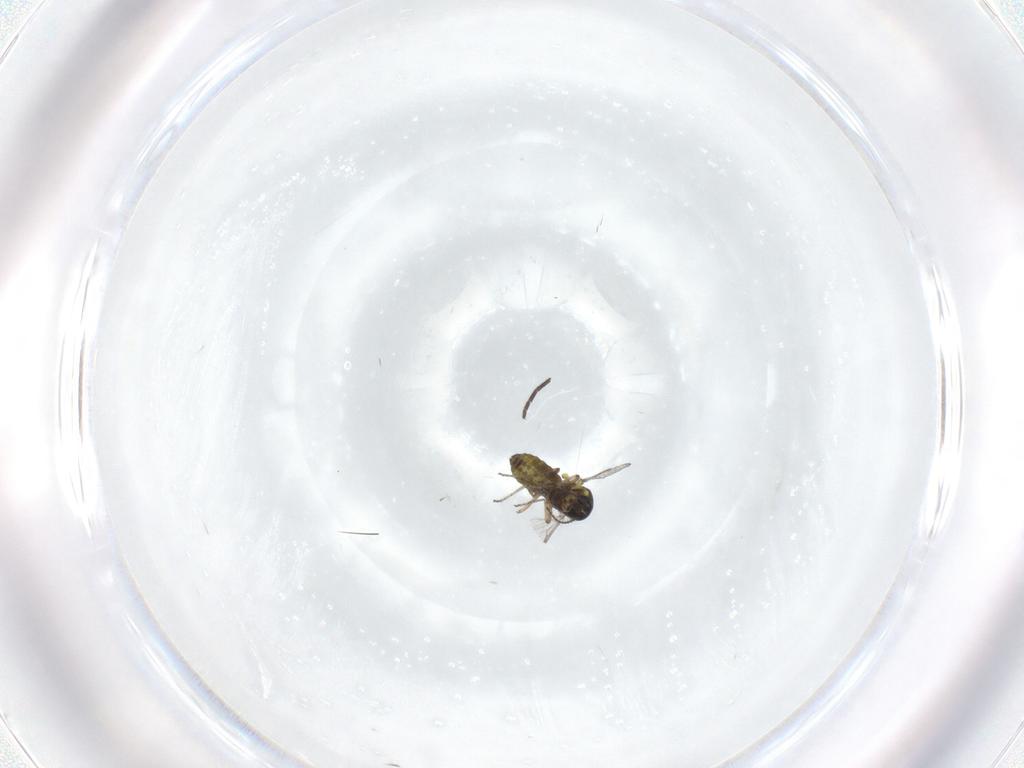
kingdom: Animalia
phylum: Arthropoda
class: Insecta
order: Diptera
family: Ceratopogonidae
